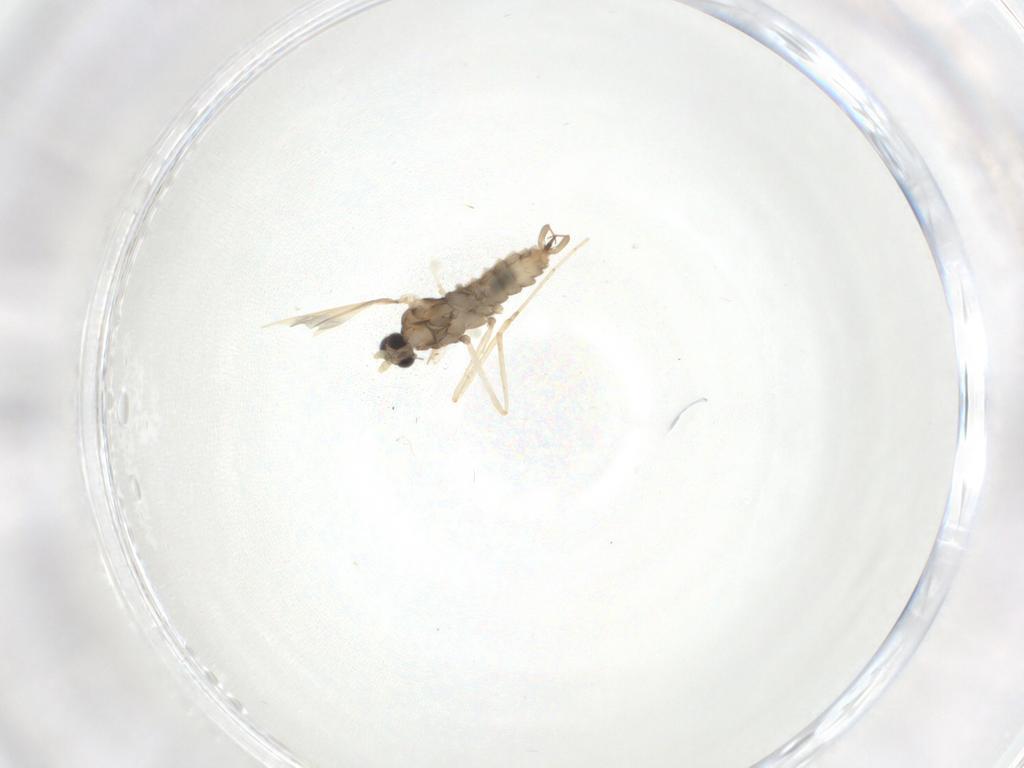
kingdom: Animalia
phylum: Arthropoda
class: Insecta
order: Diptera
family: Cecidomyiidae
